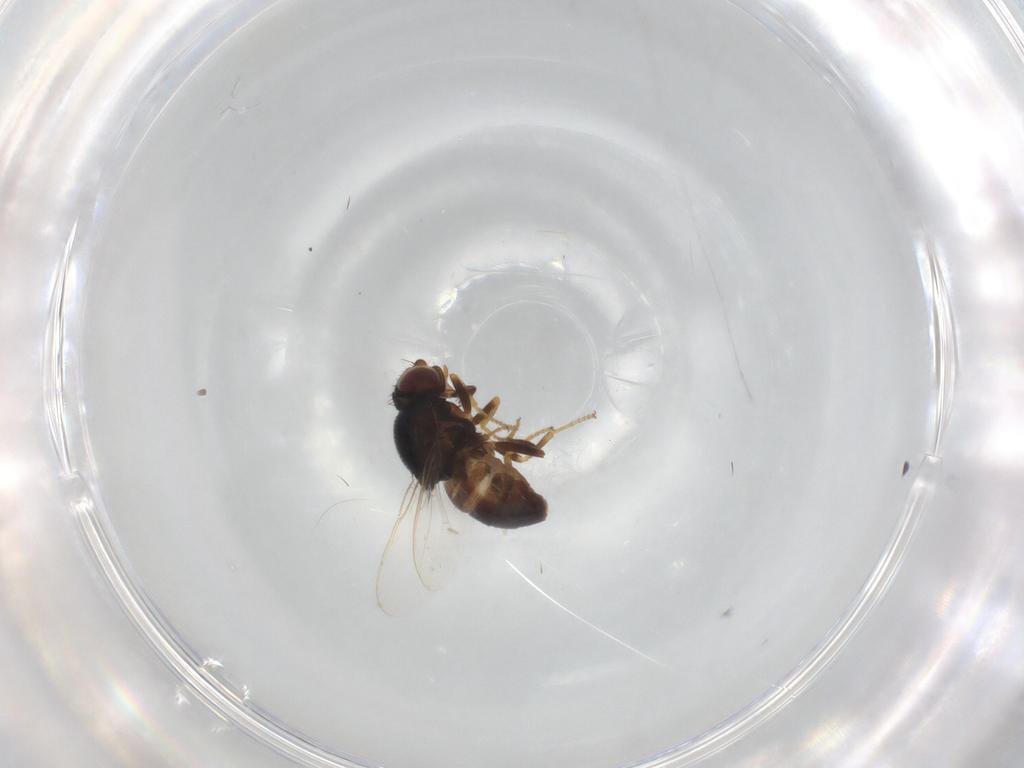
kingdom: Animalia
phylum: Arthropoda
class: Insecta
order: Diptera
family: Chloropidae
